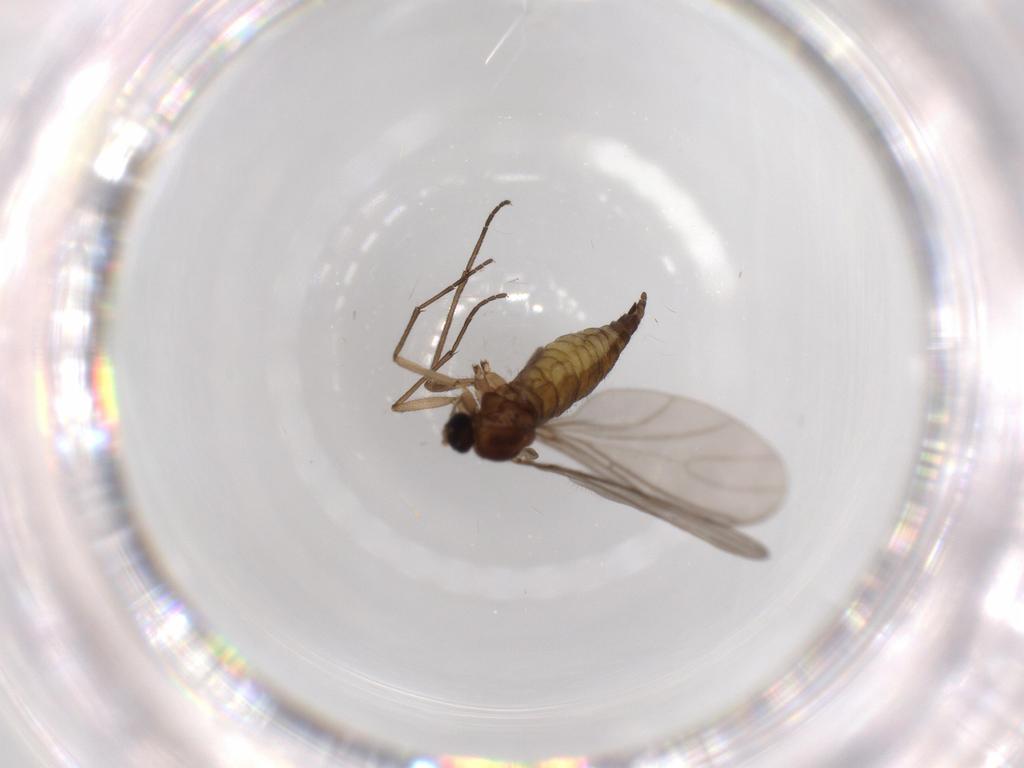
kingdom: Animalia
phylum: Arthropoda
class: Insecta
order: Diptera
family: Sciaridae
